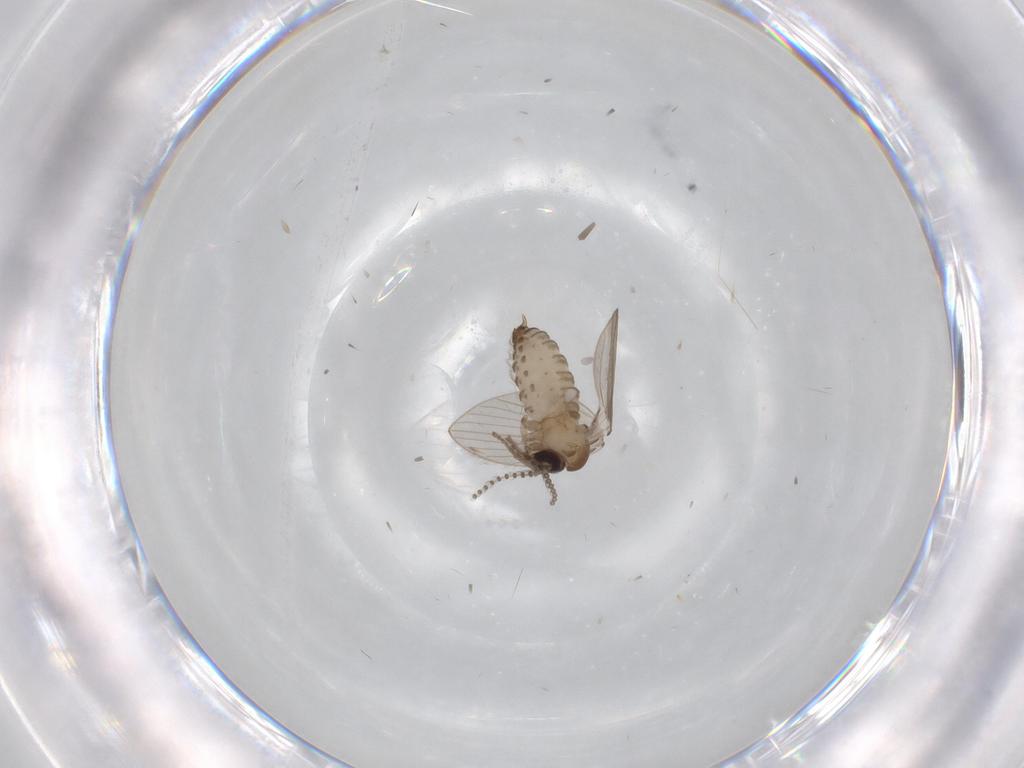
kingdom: Animalia
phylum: Arthropoda
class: Insecta
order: Diptera
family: Psychodidae
